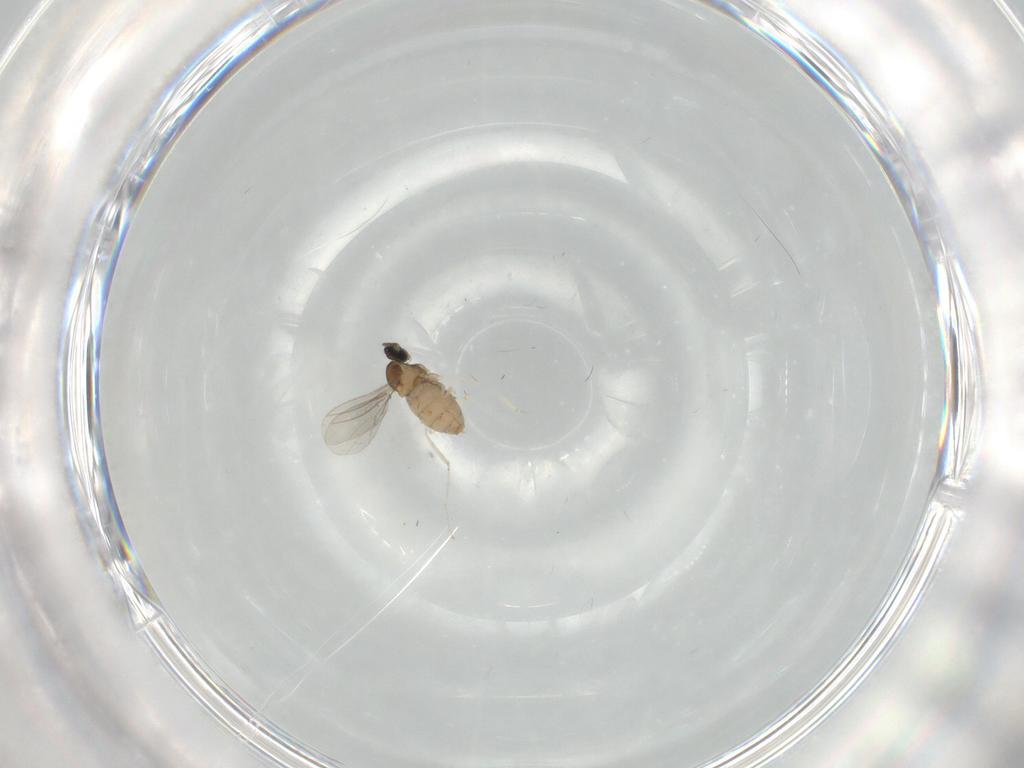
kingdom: Animalia
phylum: Arthropoda
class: Insecta
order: Diptera
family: Cecidomyiidae
